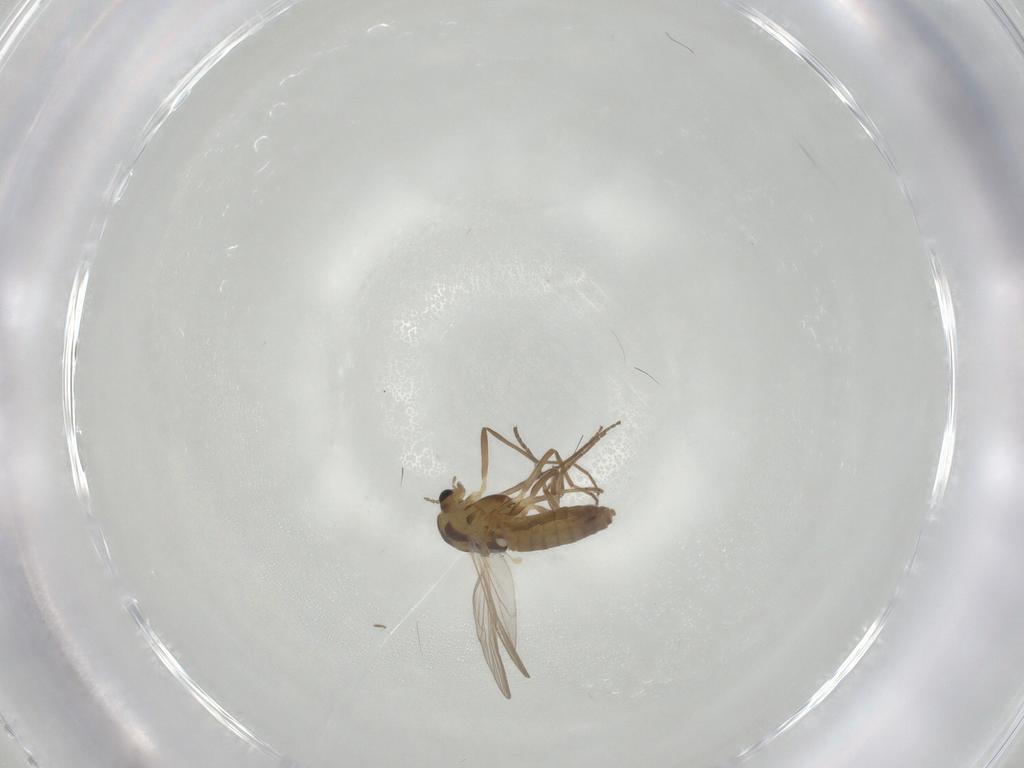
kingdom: Animalia
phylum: Arthropoda
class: Insecta
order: Diptera
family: Chironomidae
